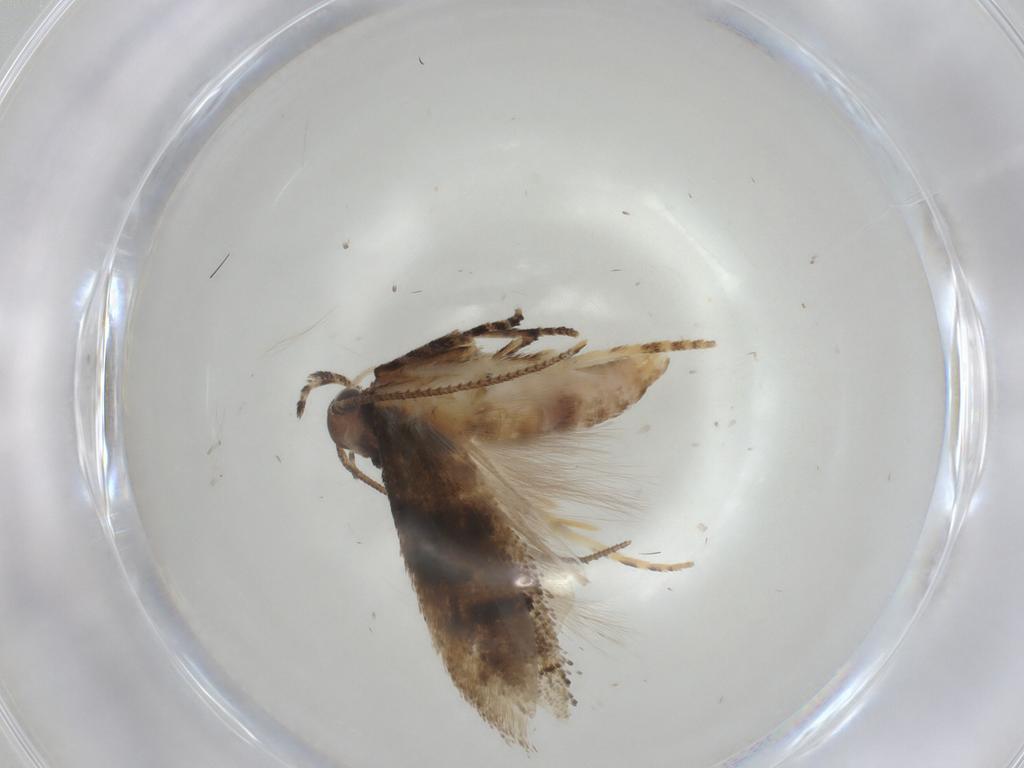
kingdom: Animalia
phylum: Arthropoda
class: Insecta
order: Lepidoptera
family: Gelechiidae
